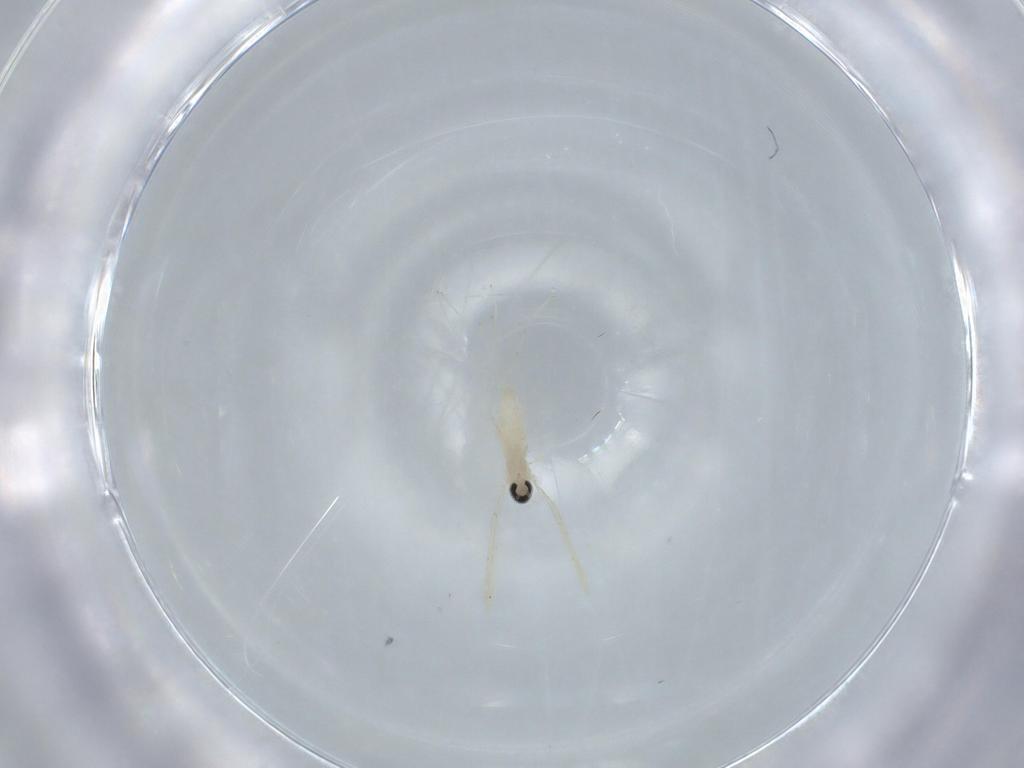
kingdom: Animalia
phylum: Arthropoda
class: Insecta
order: Diptera
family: Cecidomyiidae
